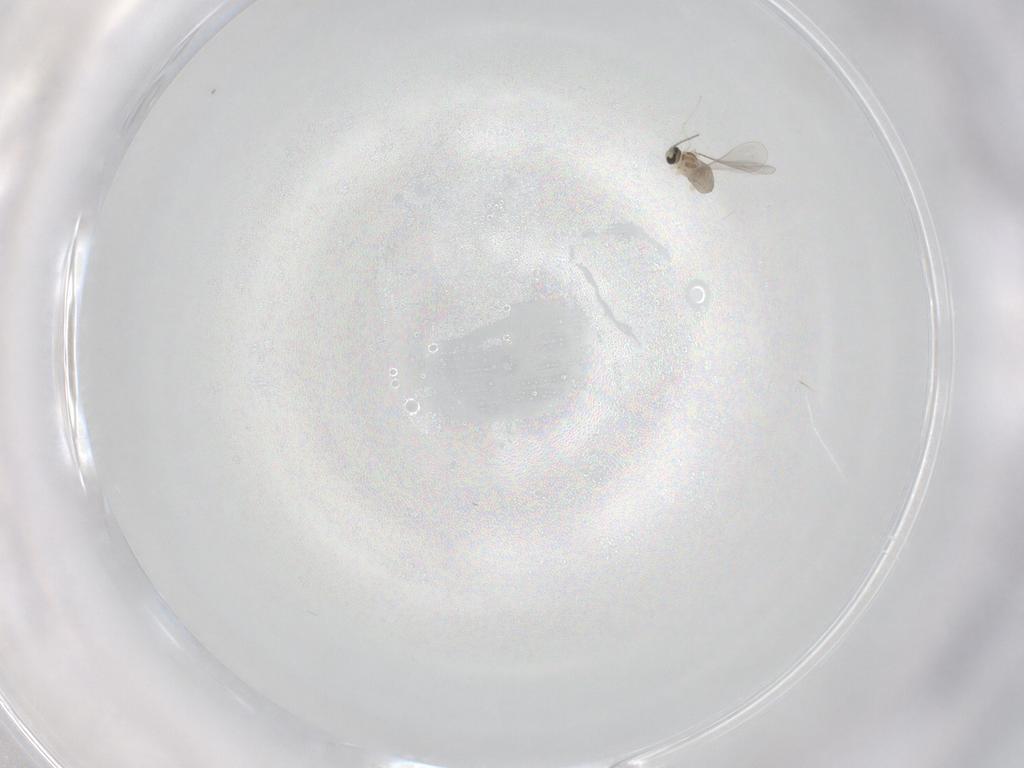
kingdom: Animalia
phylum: Arthropoda
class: Insecta
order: Diptera
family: Cecidomyiidae
